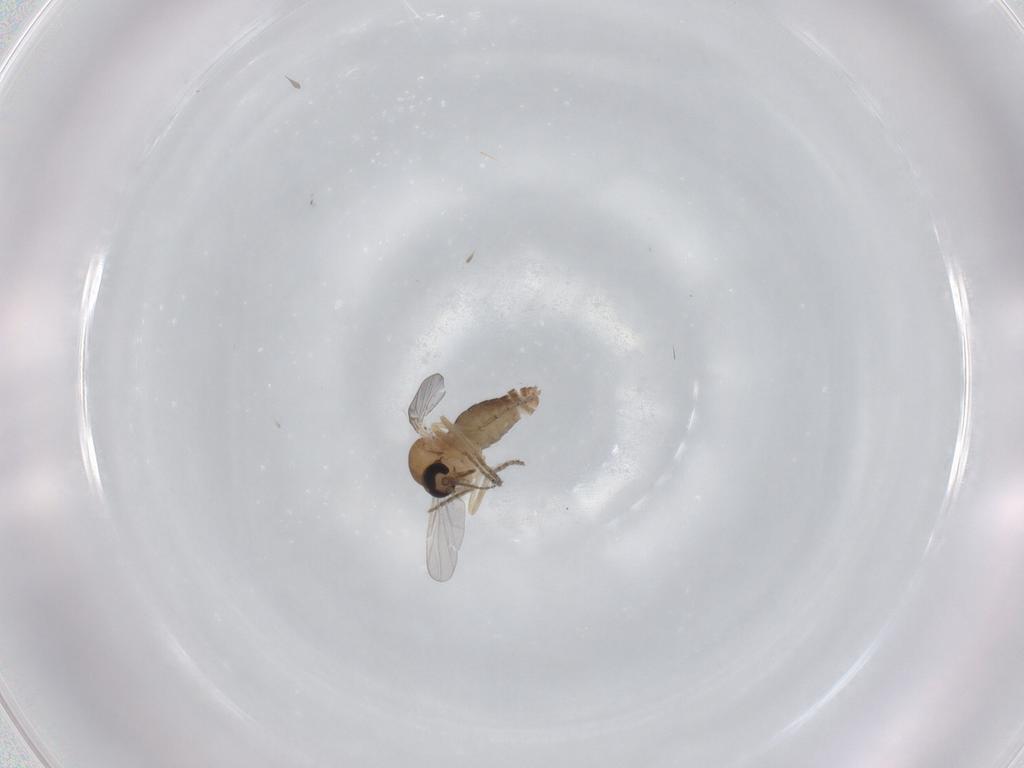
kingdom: Animalia
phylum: Arthropoda
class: Insecta
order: Diptera
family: Ceratopogonidae
